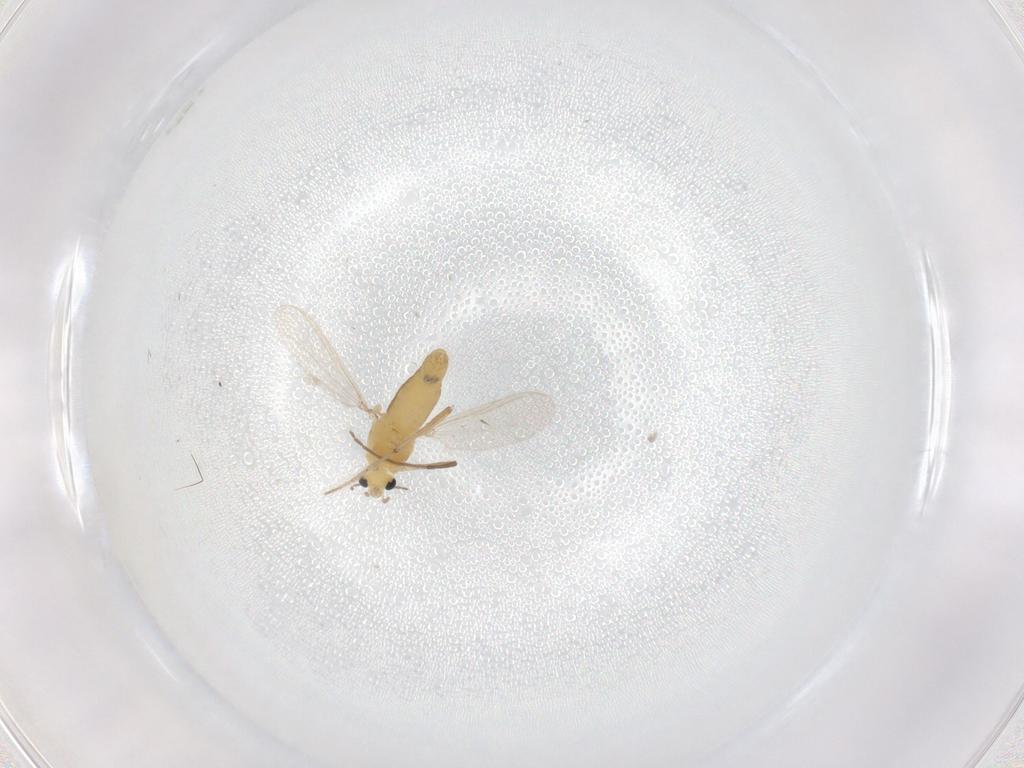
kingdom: Animalia
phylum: Arthropoda
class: Insecta
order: Diptera
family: Chironomidae
